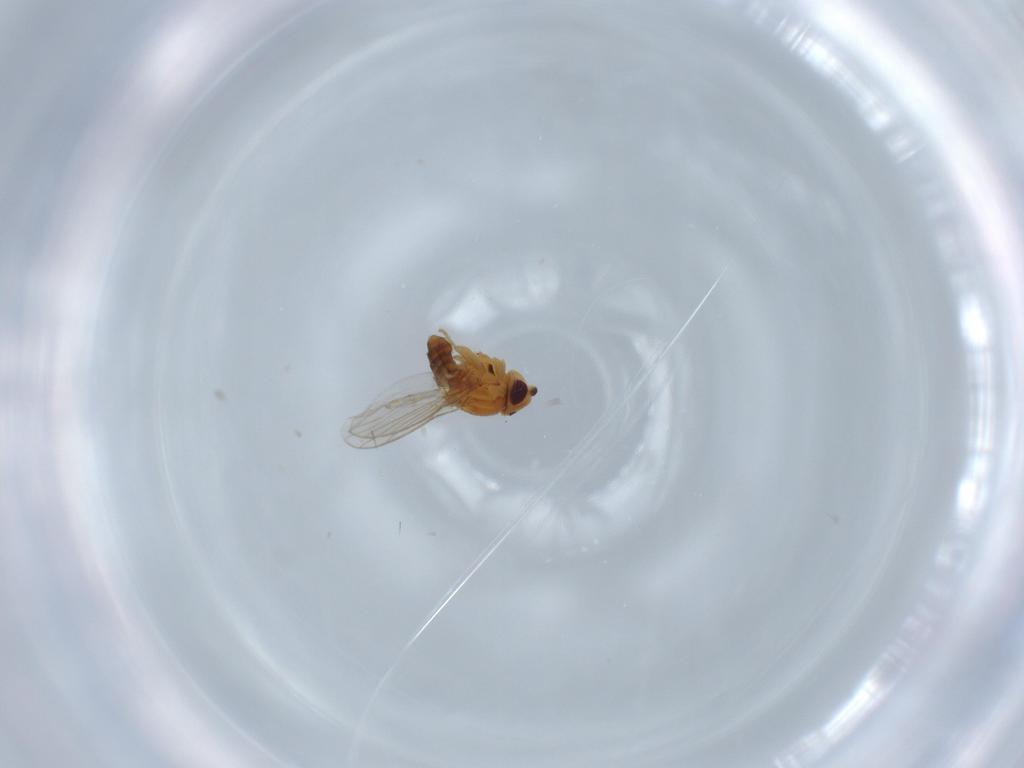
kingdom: Animalia
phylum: Arthropoda
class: Insecta
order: Diptera
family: Chloropidae
